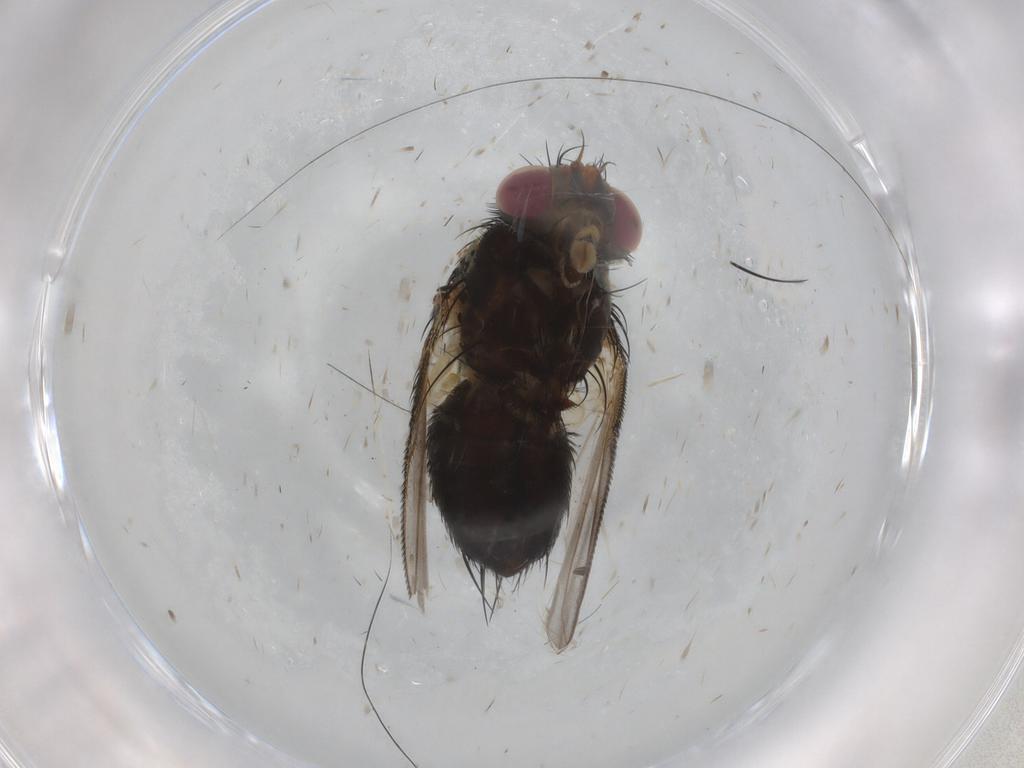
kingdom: Animalia
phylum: Arthropoda
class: Insecta
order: Diptera
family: Tachinidae
